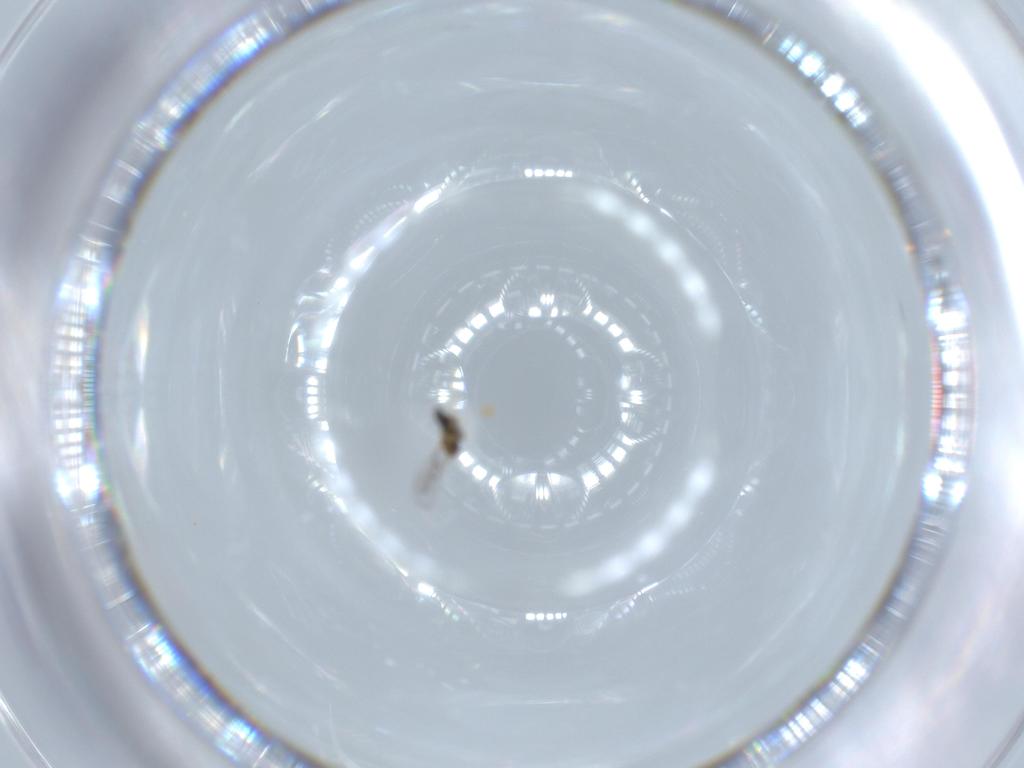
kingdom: Animalia
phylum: Arthropoda
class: Insecta
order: Hymenoptera
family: Trichogrammatidae
